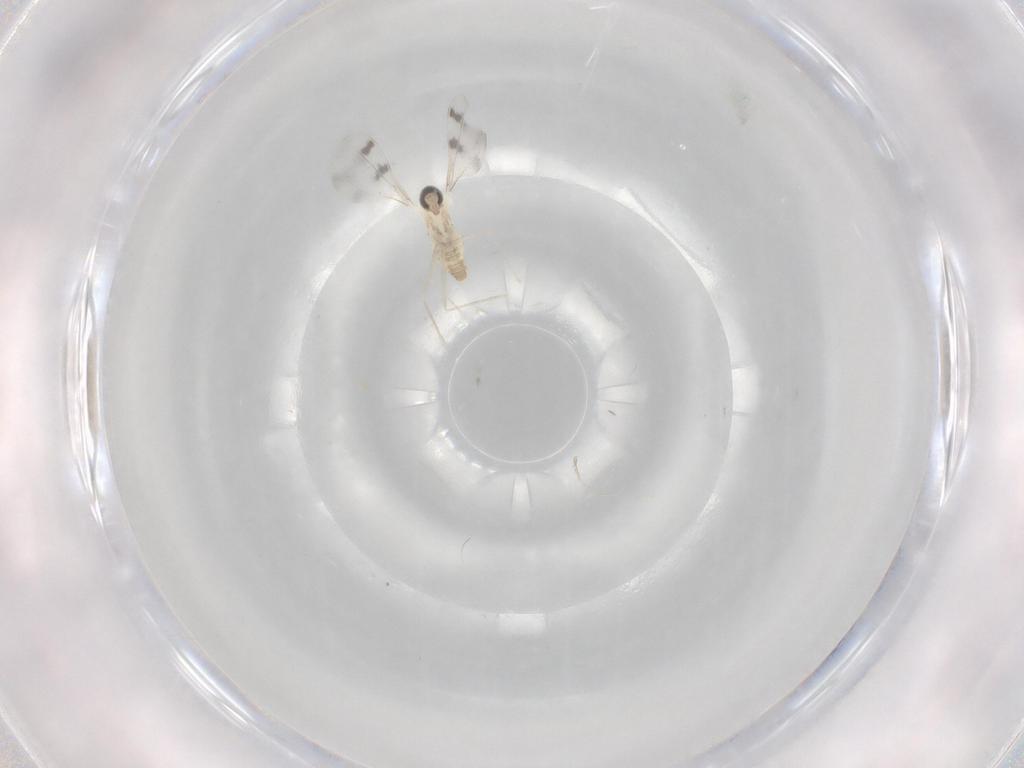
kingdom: Animalia
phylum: Arthropoda
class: Insecta
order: Diptera
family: Cecidomyiidae
